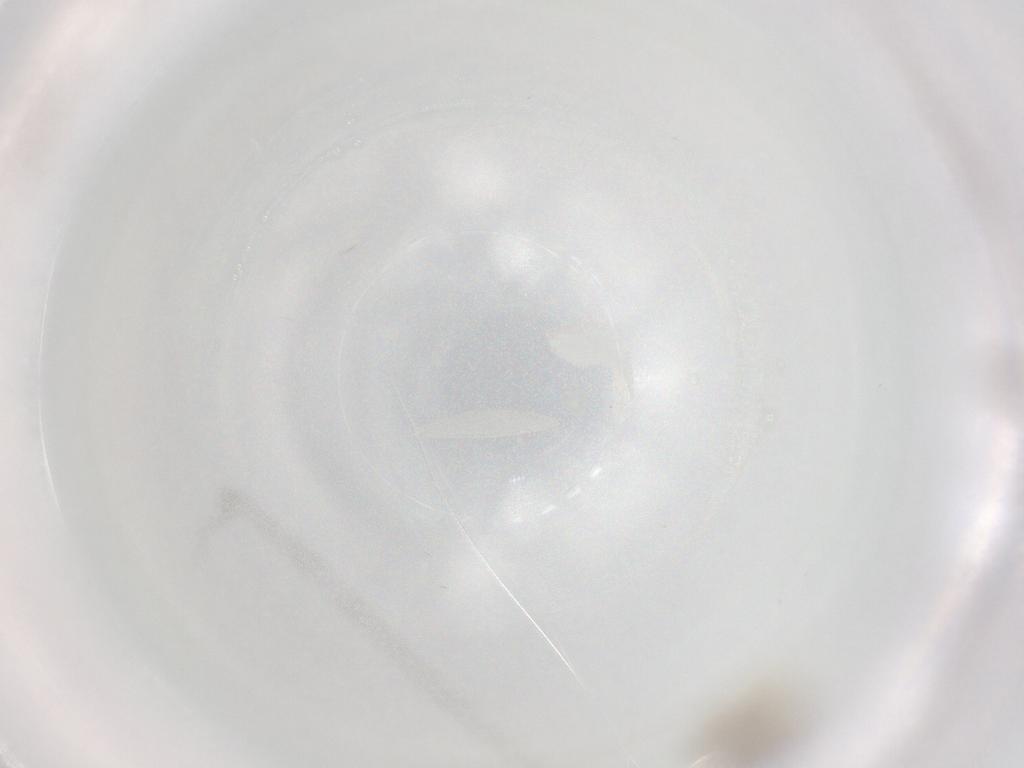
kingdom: Animalia
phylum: Arthropoda
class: Insecta
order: Diptera
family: Chironomidae
